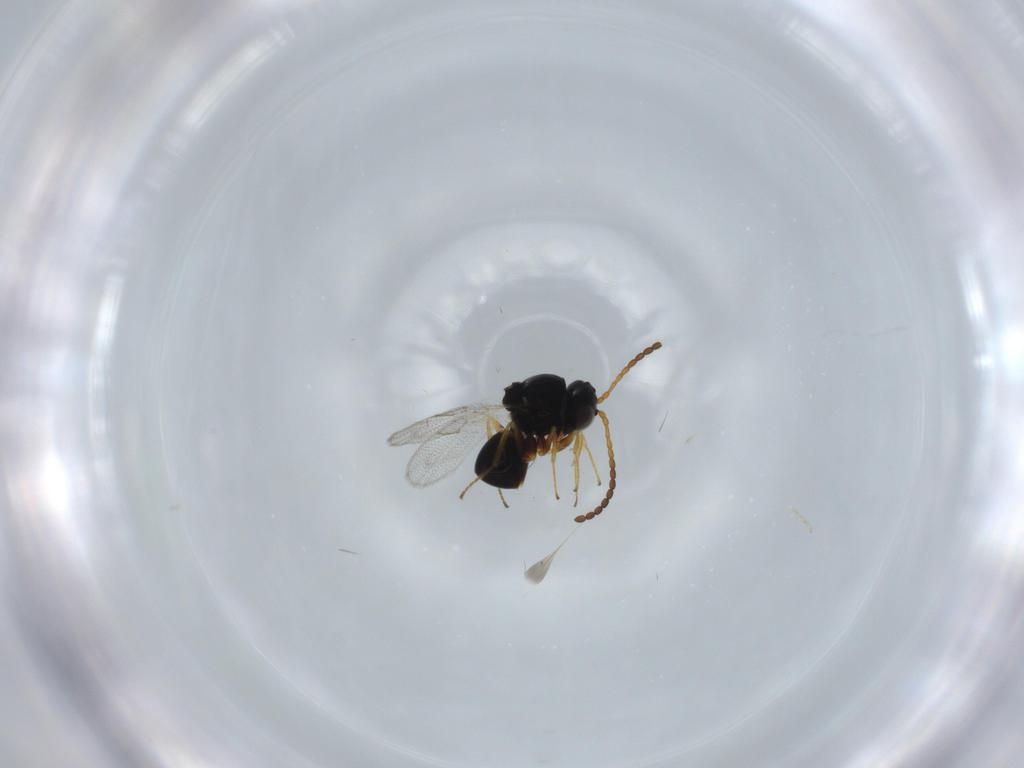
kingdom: Animalia
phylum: Arthropoda
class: Insecta
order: Hymenoptera
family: Figitidae
